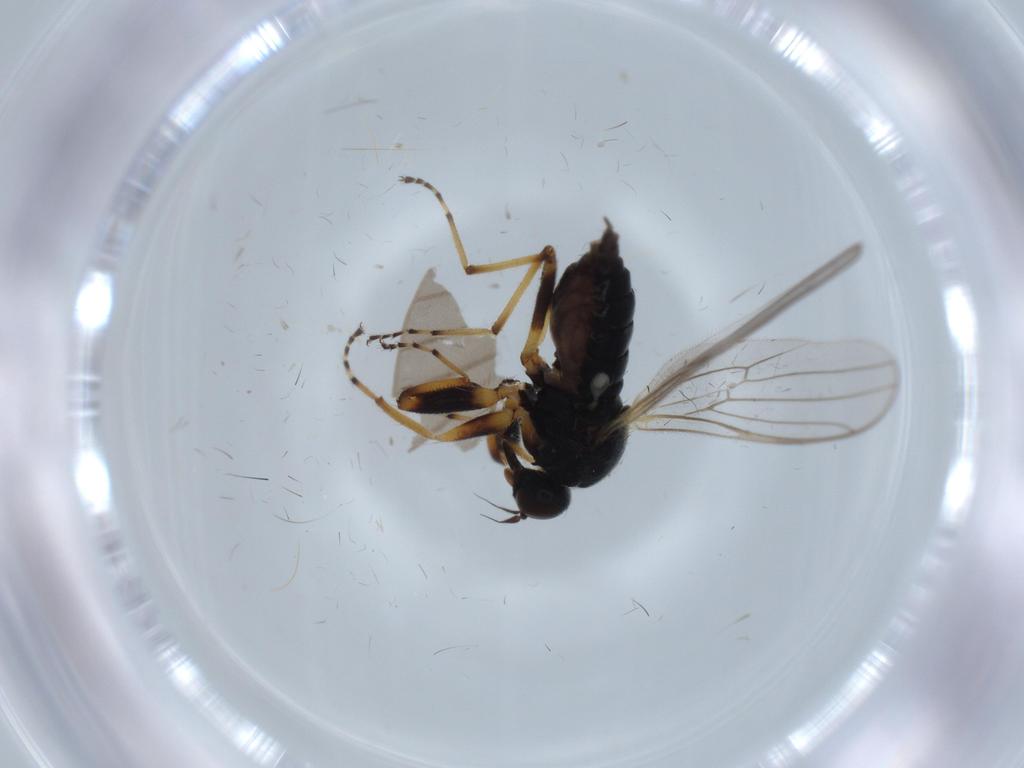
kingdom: Animalia
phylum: Arthropoda
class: Insecta
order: Diptera
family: Hybotidae
